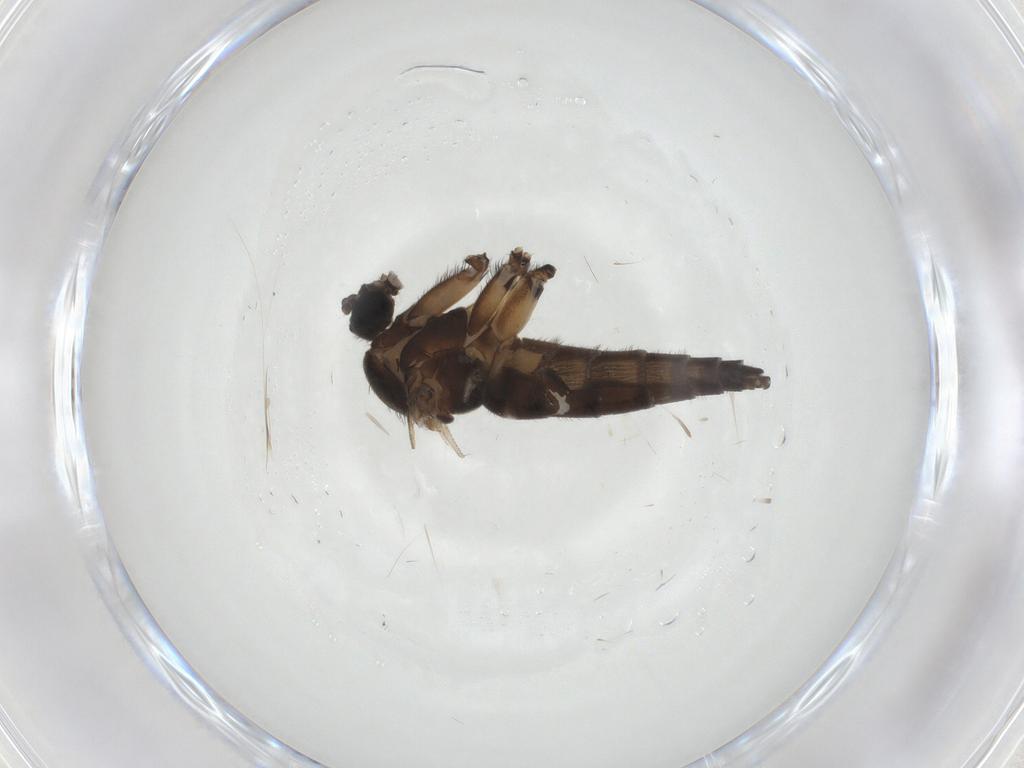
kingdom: Animalia
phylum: Arthropoda
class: Insecta
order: Diptera
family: Sciaridae
